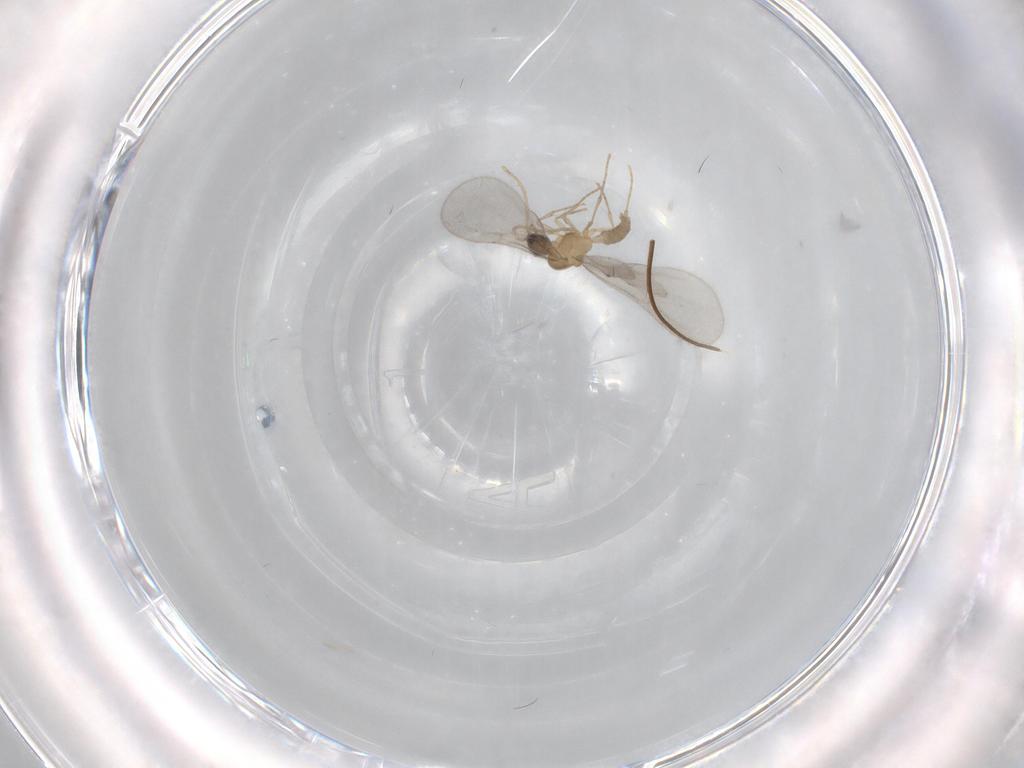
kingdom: Animalia
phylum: Arthropoda
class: Insecta
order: Hymenoptera
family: Formicidae
